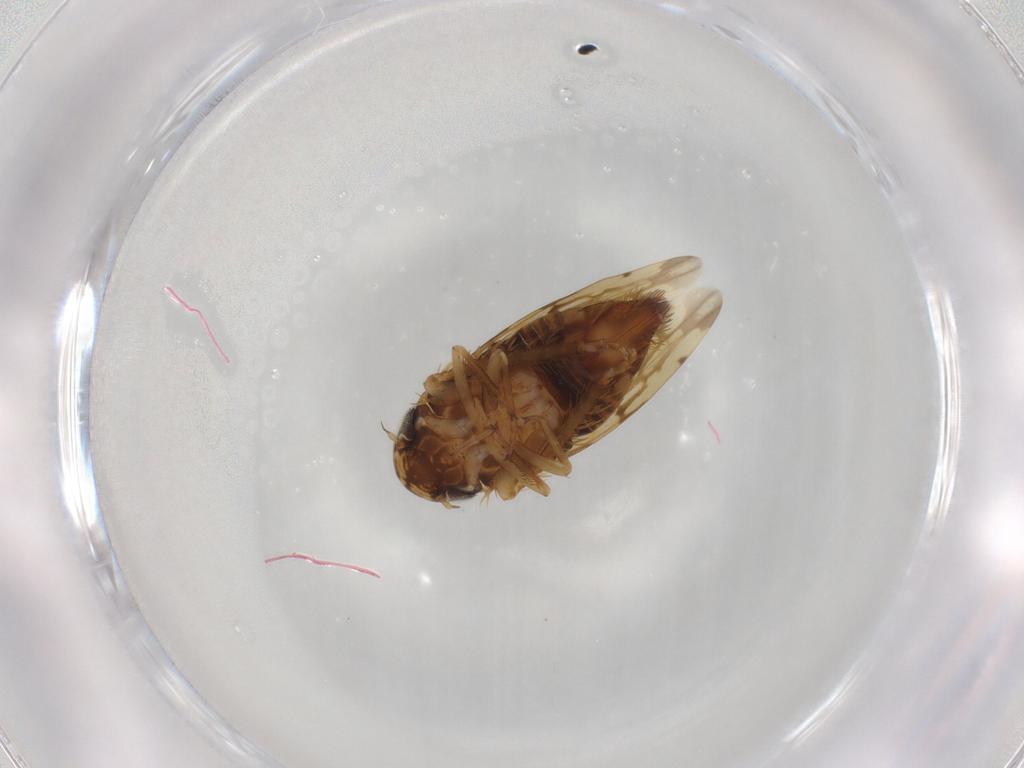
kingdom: Animalia
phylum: Arthropoda
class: Insecta
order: Hemiptera
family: Cicadellidae
